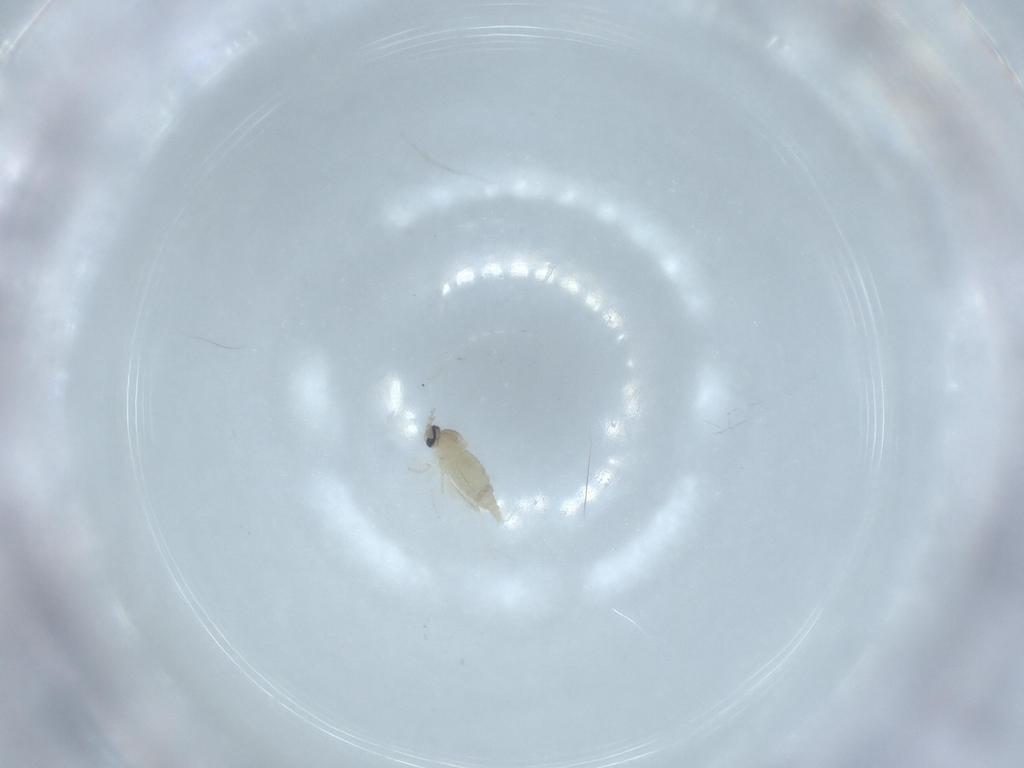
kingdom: Animalia
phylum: Arthropoda
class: Insecta
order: Diptera
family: Cecidomyiidae
